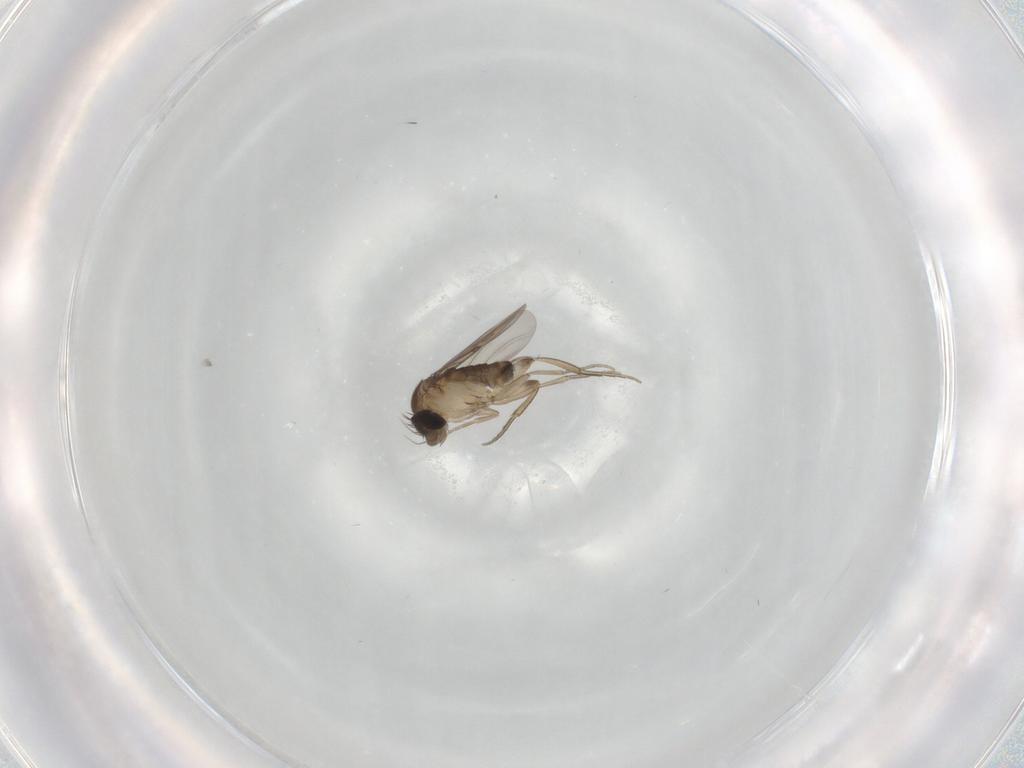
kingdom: Animalia
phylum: Arthropoda
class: Insecta
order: Diptera
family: Phoridae
